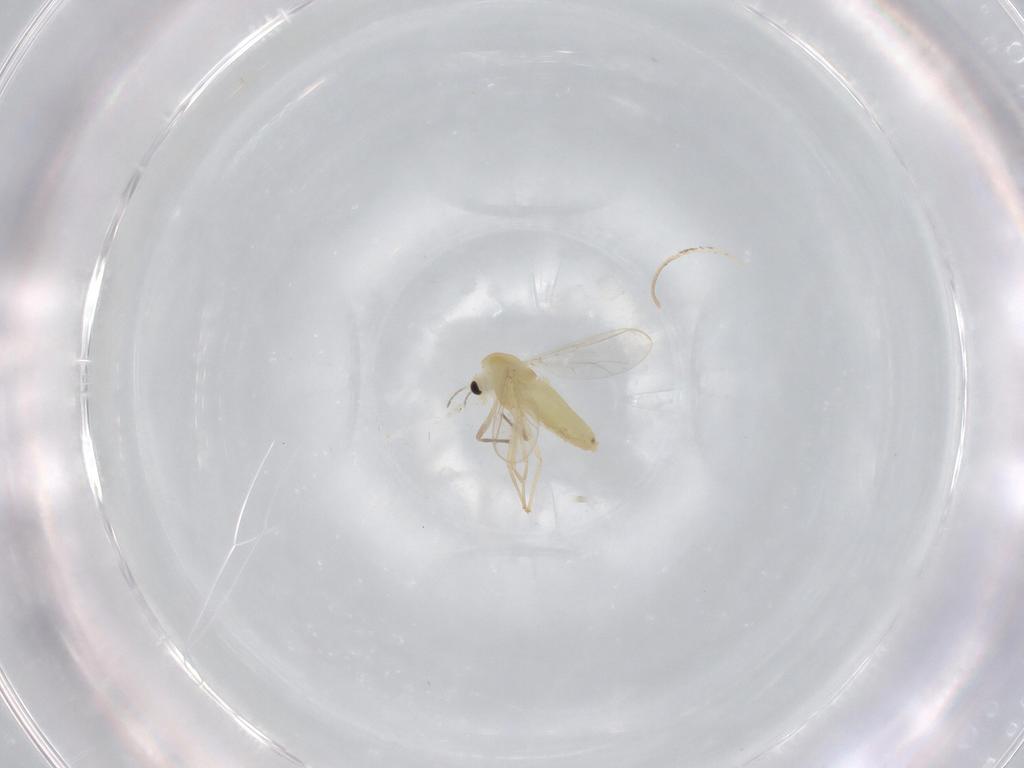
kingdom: Animalia
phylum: Arthropoda
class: Insecta
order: Diptera
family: Chironomidae
